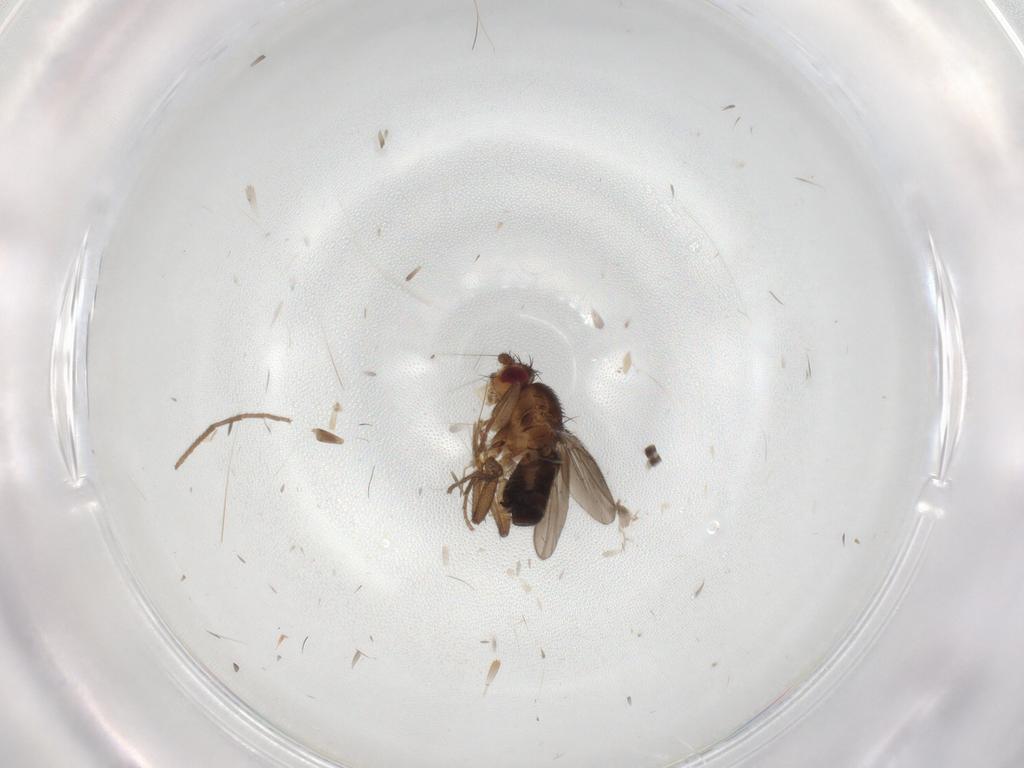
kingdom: Animalia
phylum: Arthropoda
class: Insecta
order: Diptera
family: Sphaeroceridae
